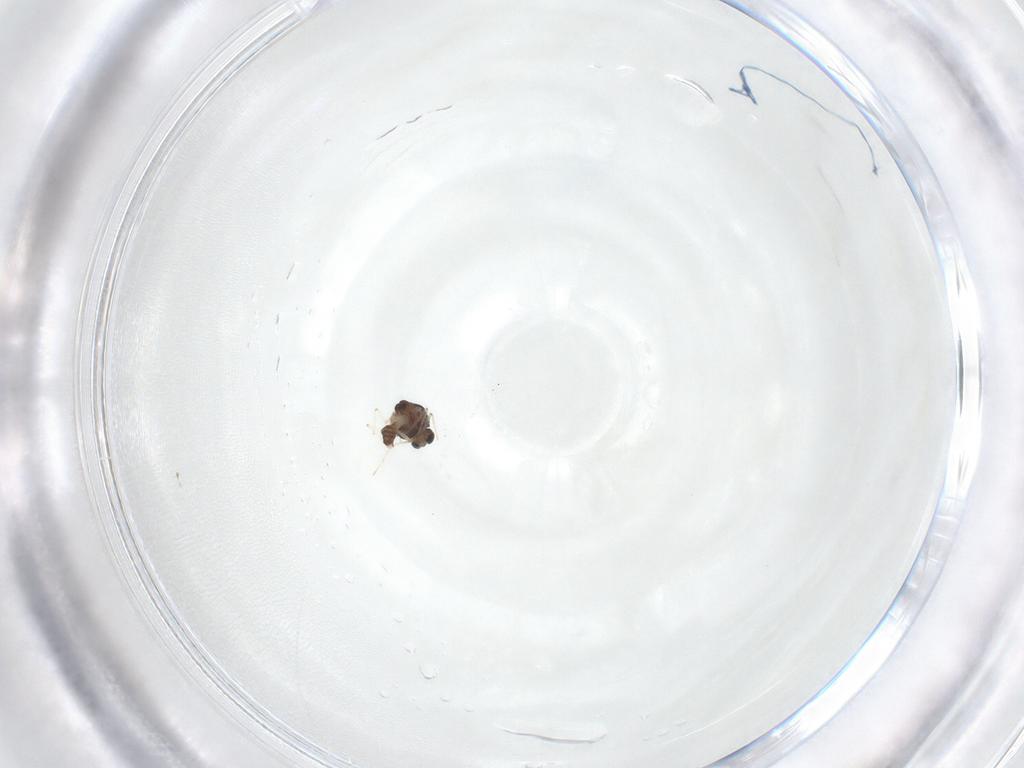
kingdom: Animalia
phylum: Arthropoda
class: Insecta
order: Diptera
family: Chironomidae
